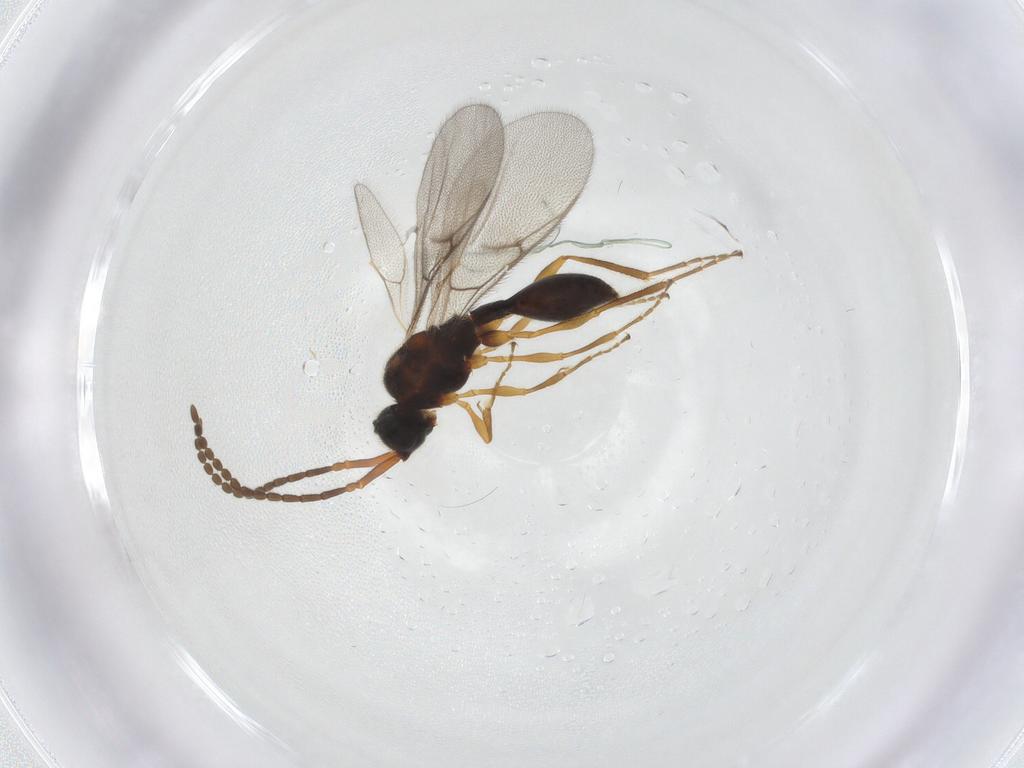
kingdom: Animalia
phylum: Arthropoda
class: Insecta
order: Hymenoptera
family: Diapriidae
